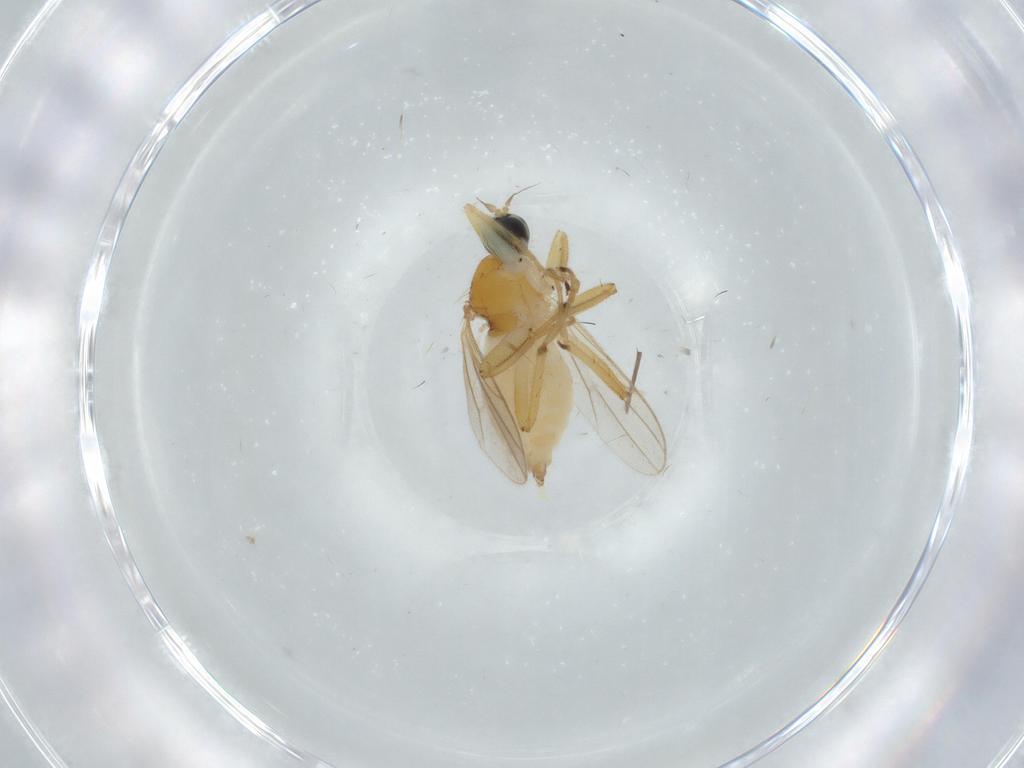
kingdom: Animalia
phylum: Arthropoda
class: Insecta
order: Diptera
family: Hybotidae
